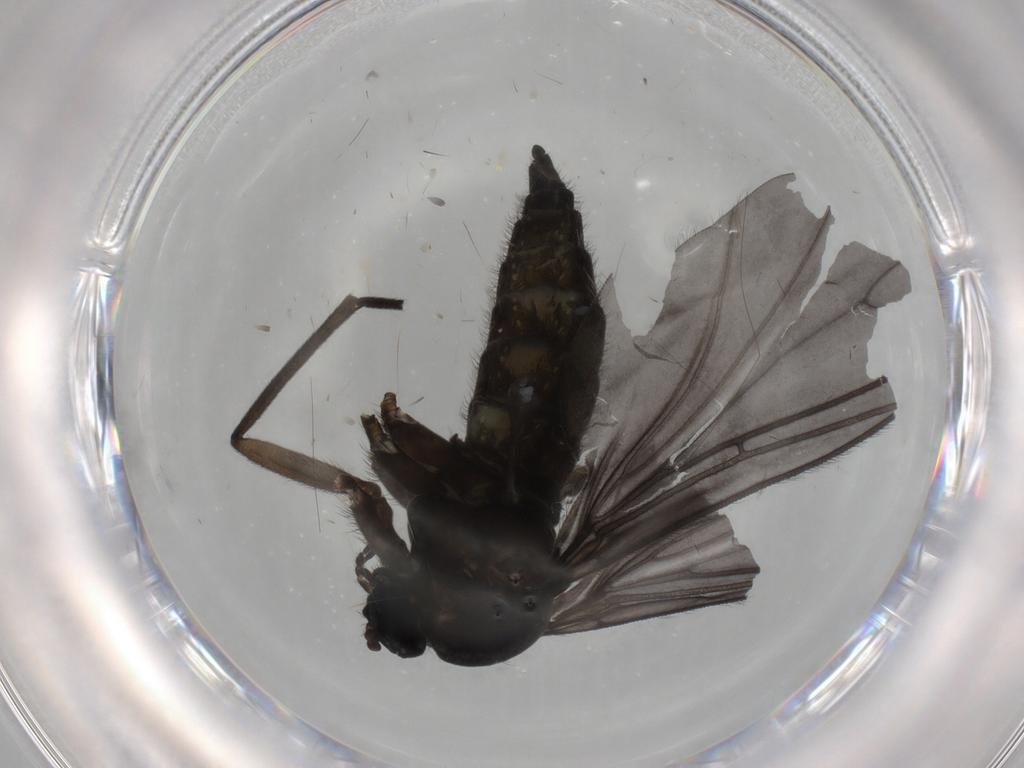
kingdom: Animalia
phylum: Arthropoda
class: Insecta
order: Diptera
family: Sciaridae
